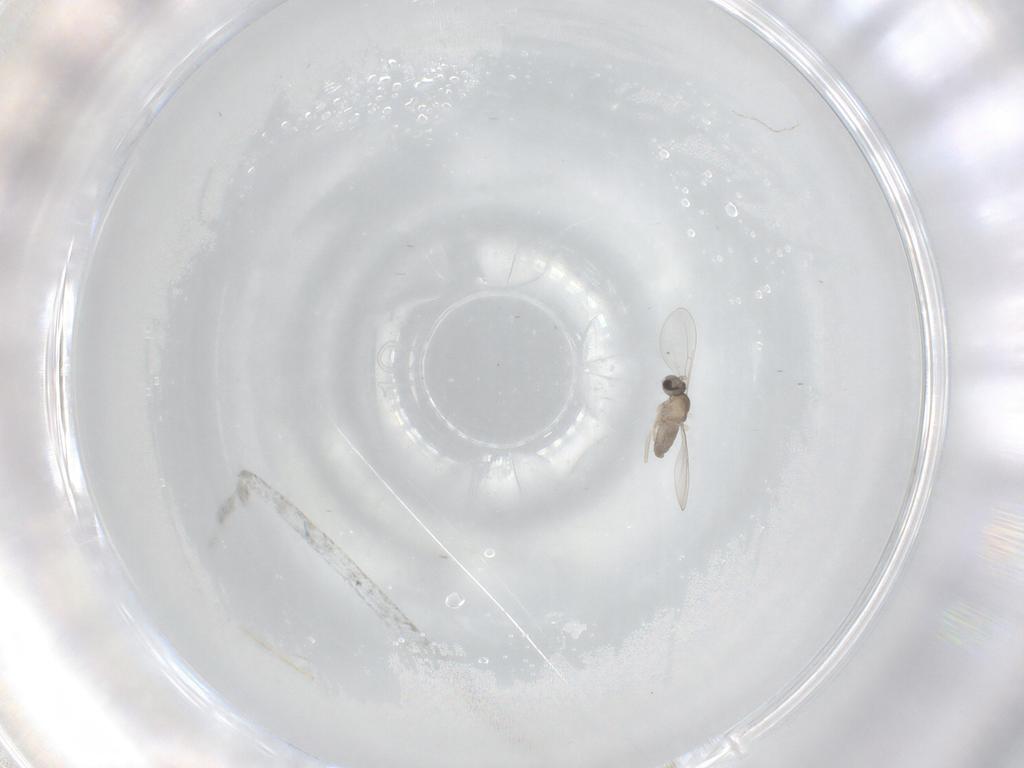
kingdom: Animalia
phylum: Arthropoda
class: Insecta
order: Diptera
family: Cecidomyiidae
